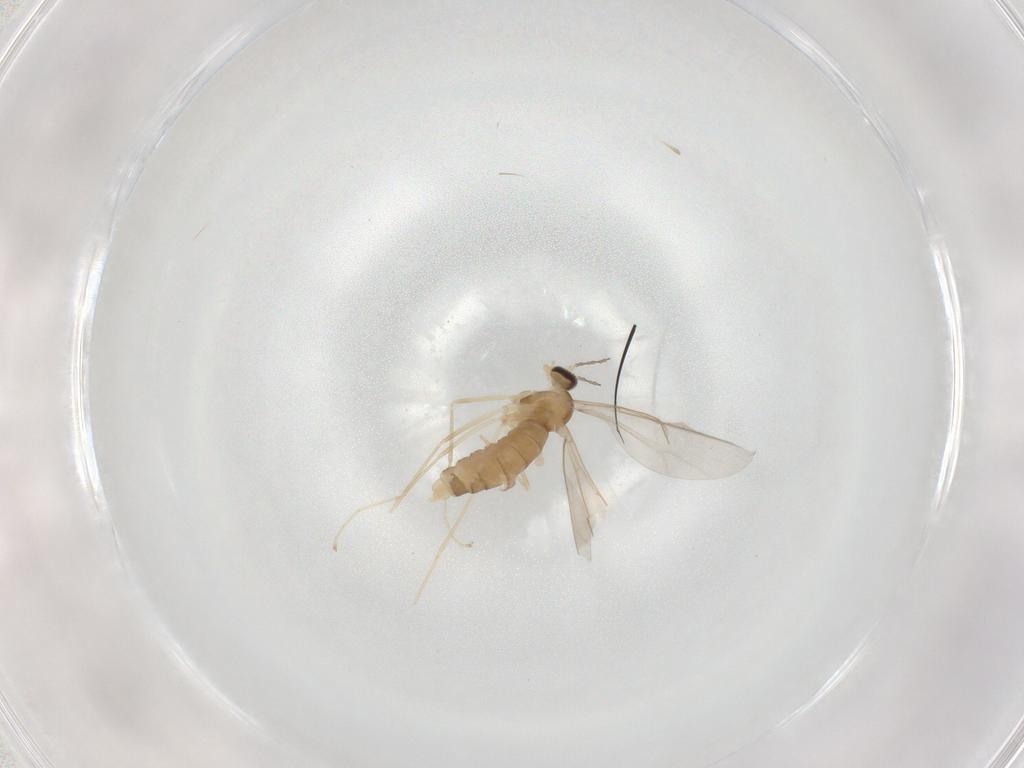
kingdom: Animalia
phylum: Arthropoda
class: Insecta
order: Diptera
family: Cecidomyiidae
